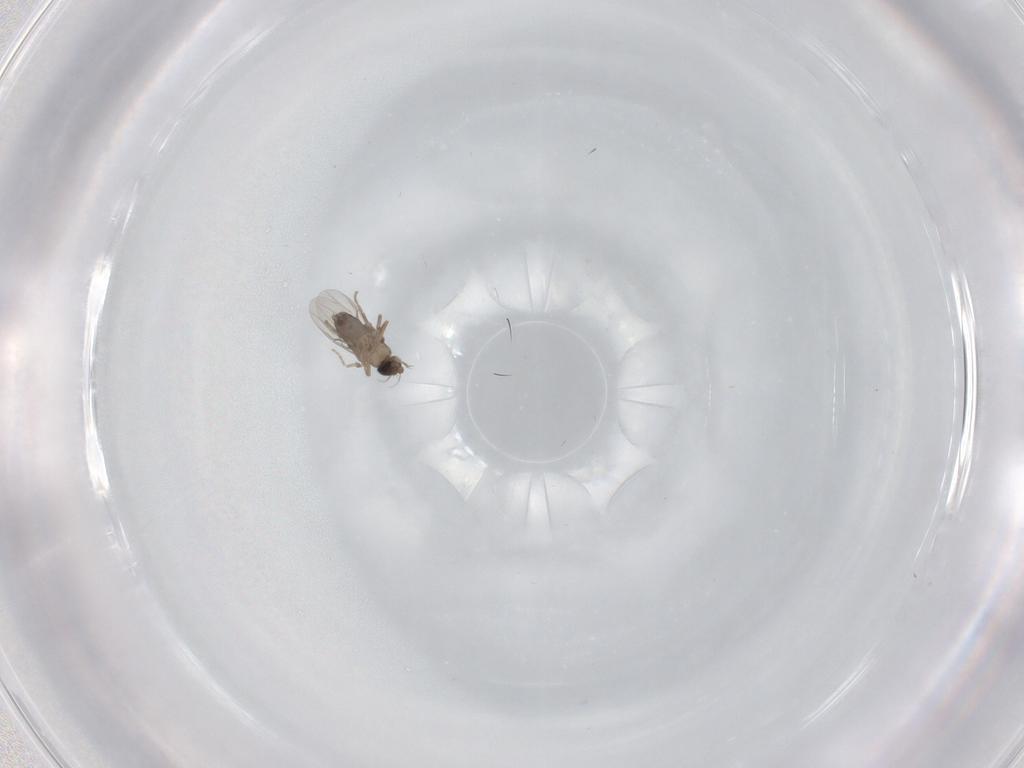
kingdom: Animalia
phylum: Arthropoda
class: Insecta
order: Diptera
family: Phoridae
